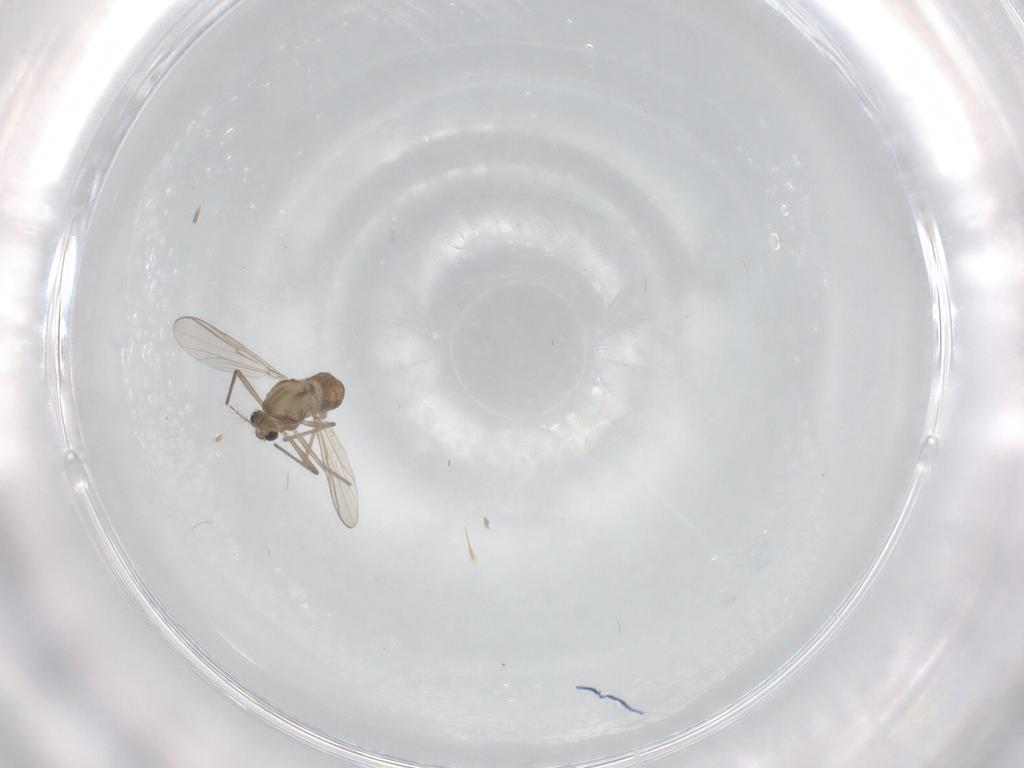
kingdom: Animalia
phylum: Arthropoda
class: Insecta
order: Diptera
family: Chironomidae
